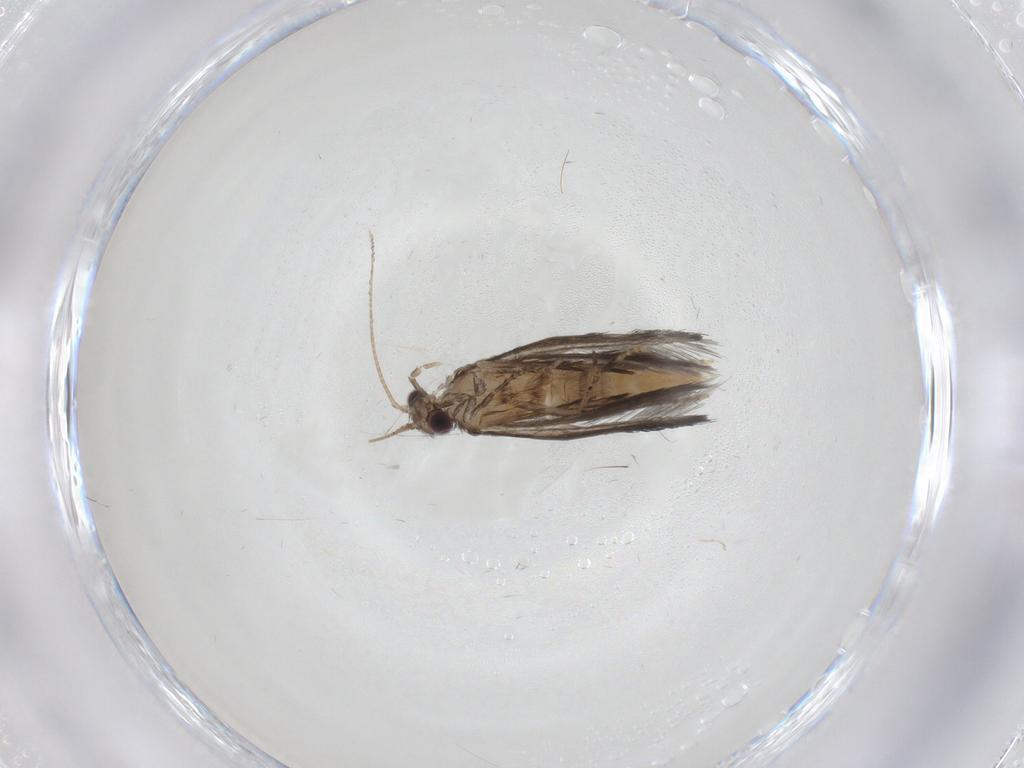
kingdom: Animalia
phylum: Arthropoda
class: Insecta
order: Trichoptera
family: Hydroptilidae
